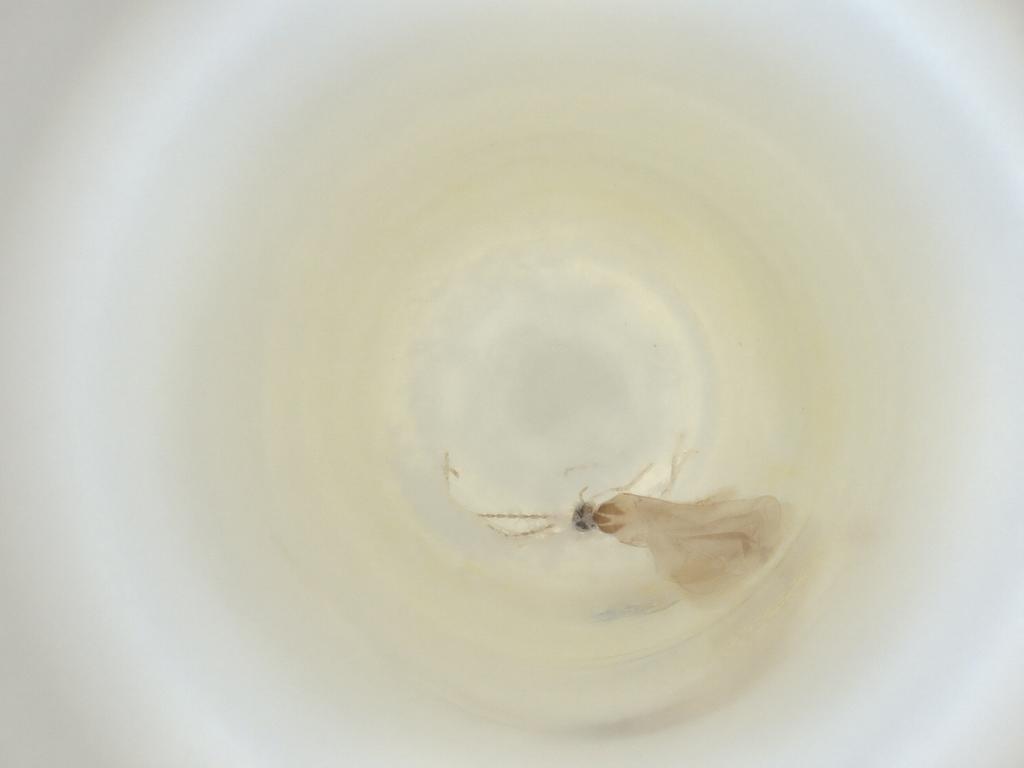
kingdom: Animalia
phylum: Arthropoda
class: Insecta
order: Diptera
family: Cecidomyiidae
